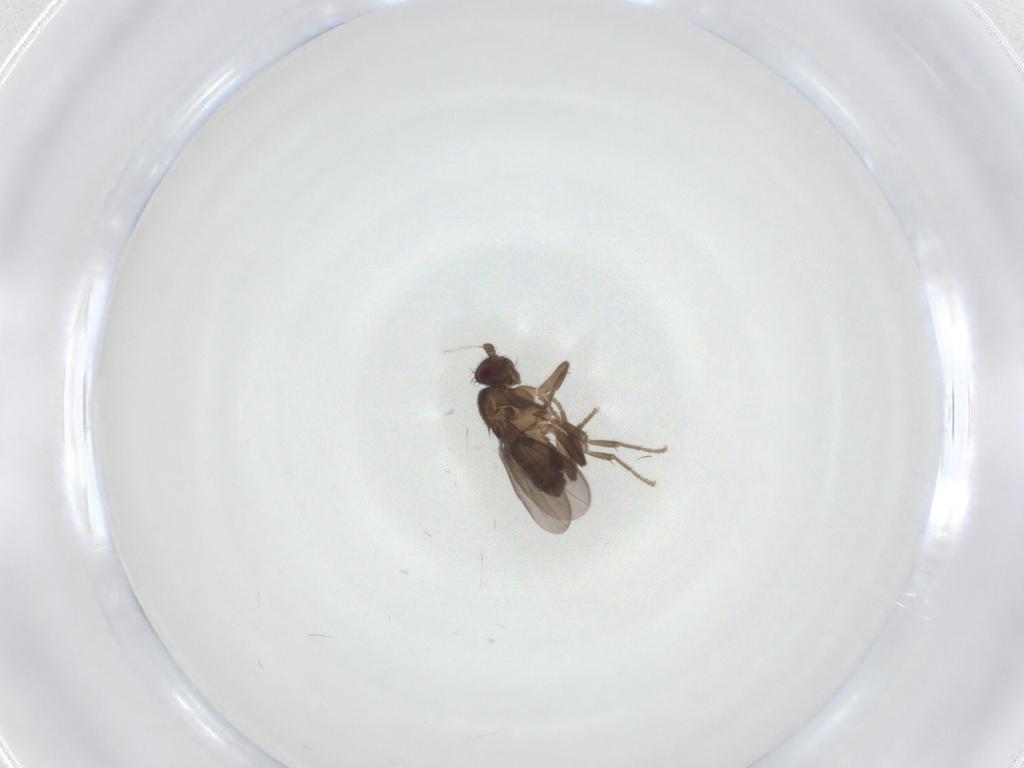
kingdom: Animalia
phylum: Arthropoda
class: Insecta
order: Diptera
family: Sphaeroceridae
